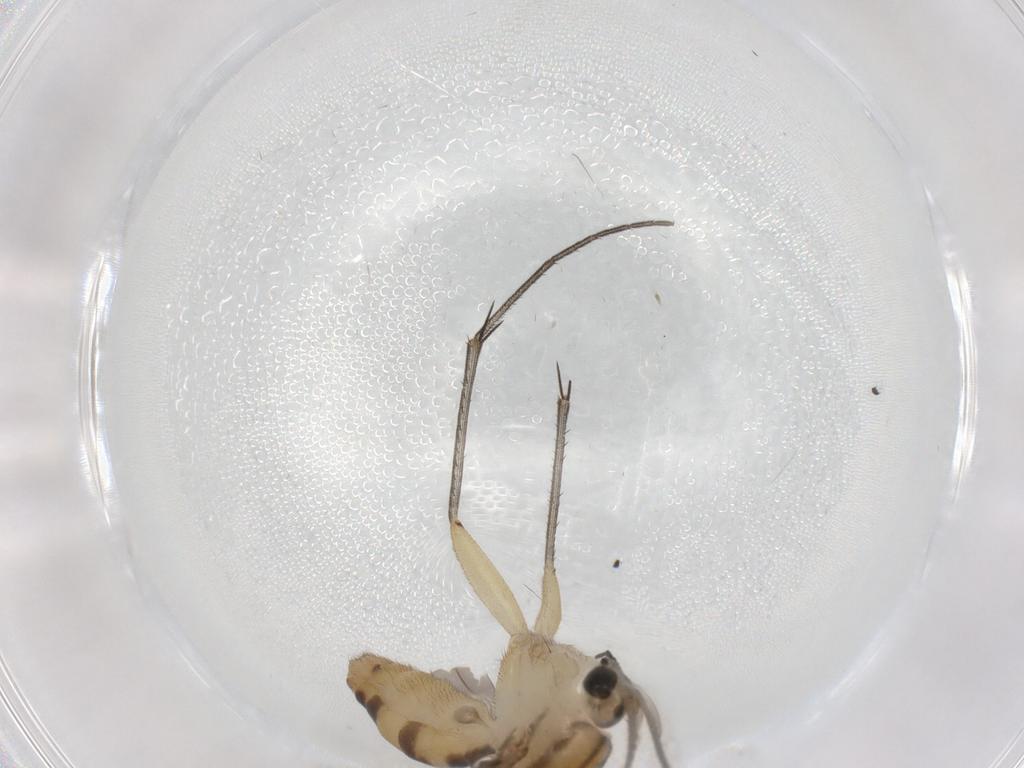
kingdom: Animalia
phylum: Arthropoda
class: Insecta
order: Diptera
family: Mycetophilidae
